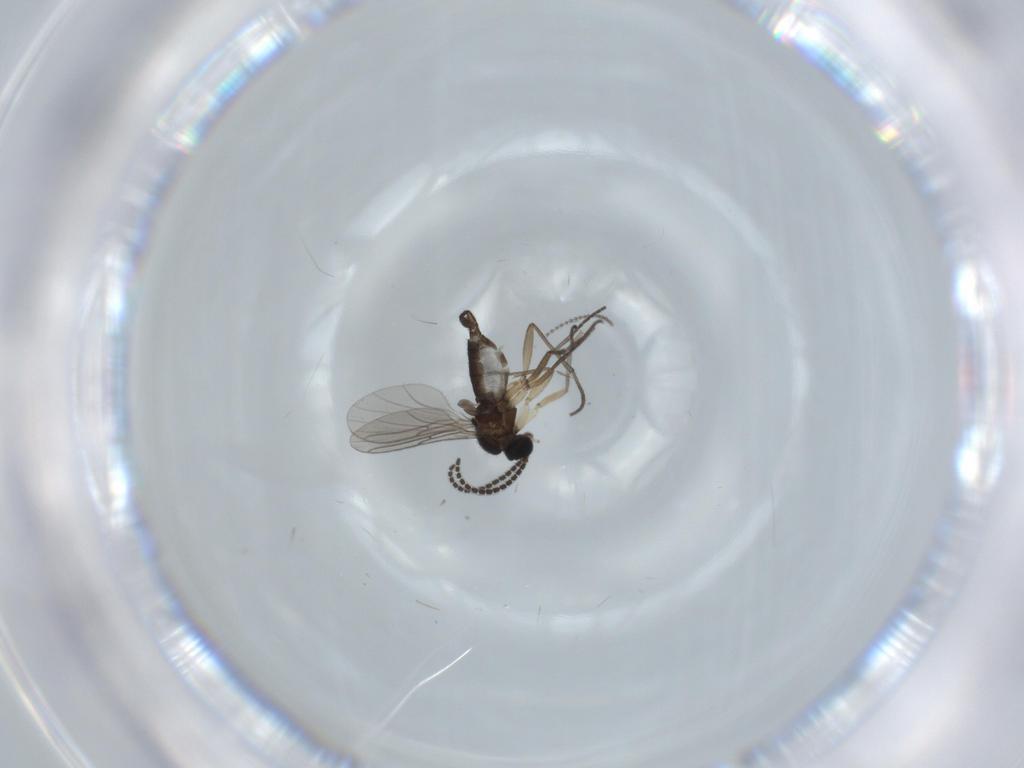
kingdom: Animalia
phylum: Arthropoda
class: Insecta
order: Diptera
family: Sciaridae
